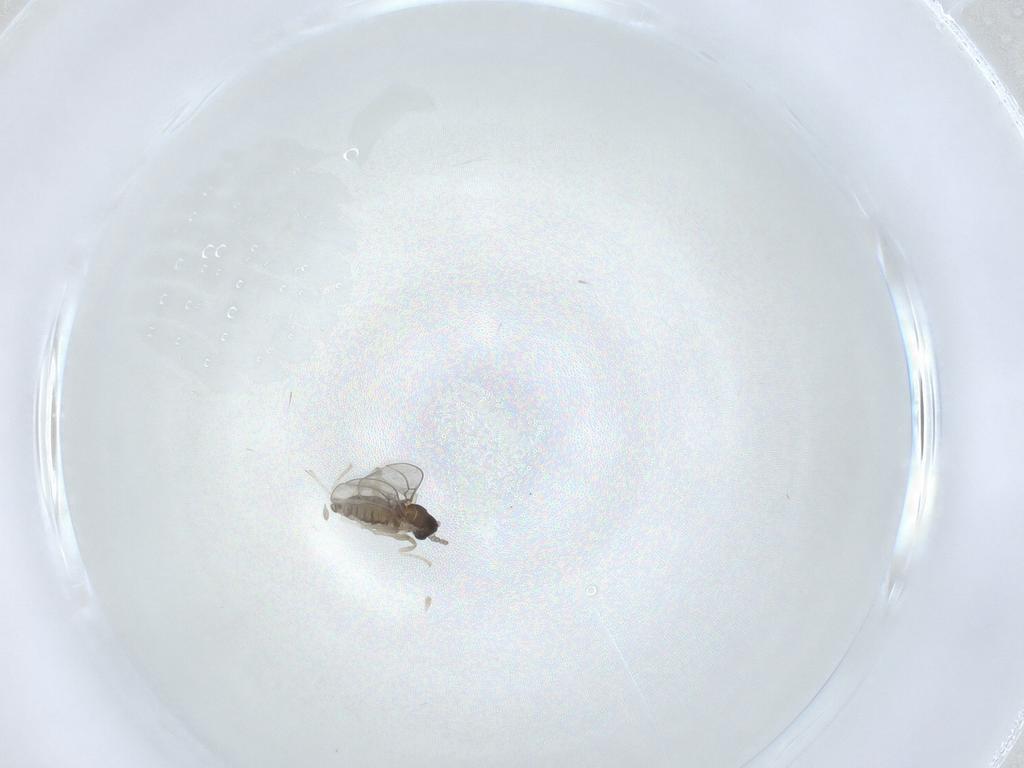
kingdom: Animalia
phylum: Arthropoda
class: Insecta
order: Diptera
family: Cecidomyiidae
